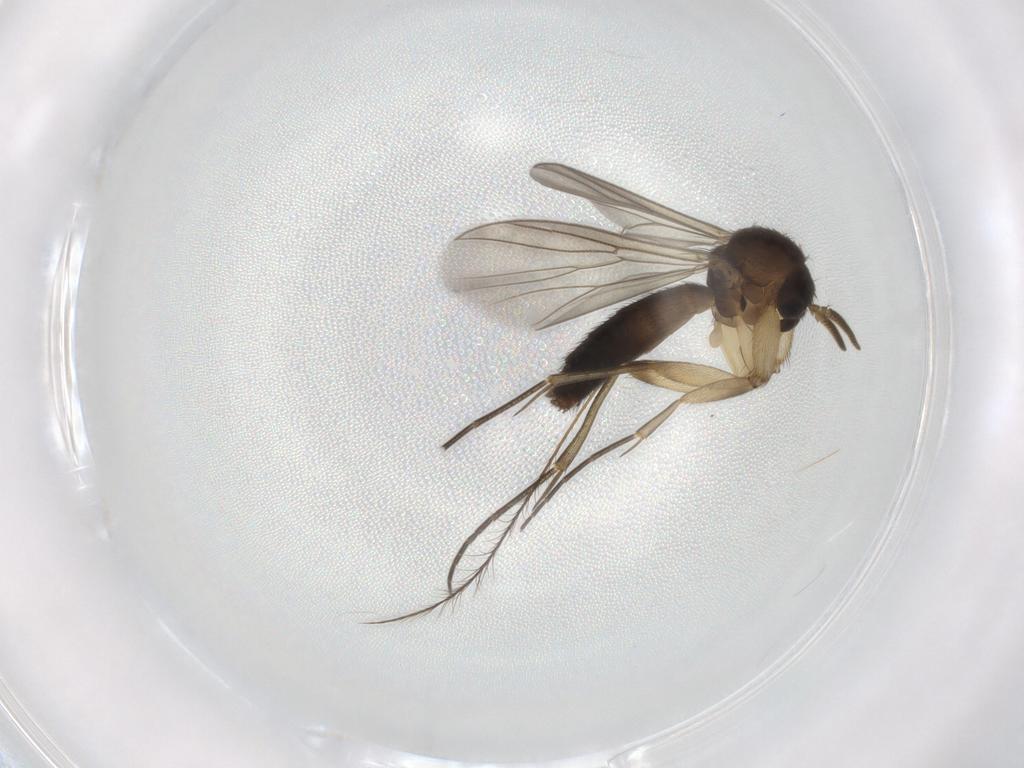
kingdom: Animalia
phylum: Arthropoda
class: Insecta
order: Diptera
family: Mycetophilidae
